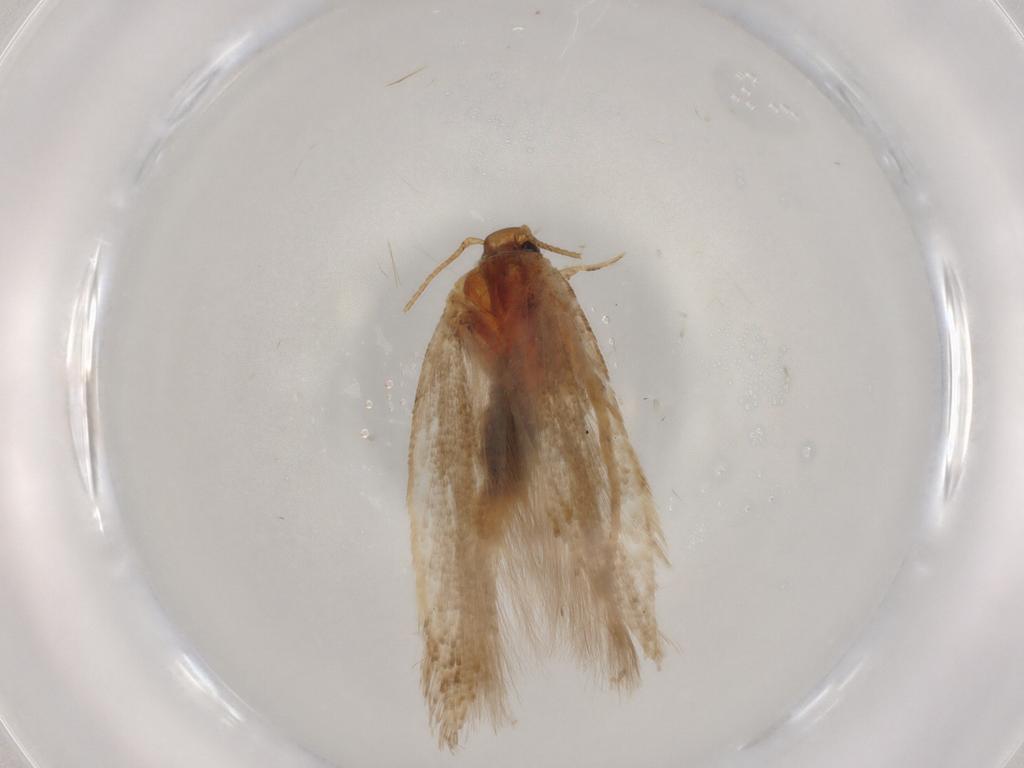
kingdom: Animalia
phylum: Arthropoda
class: Insecta
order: Lepidoptera
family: Gelechiidae
